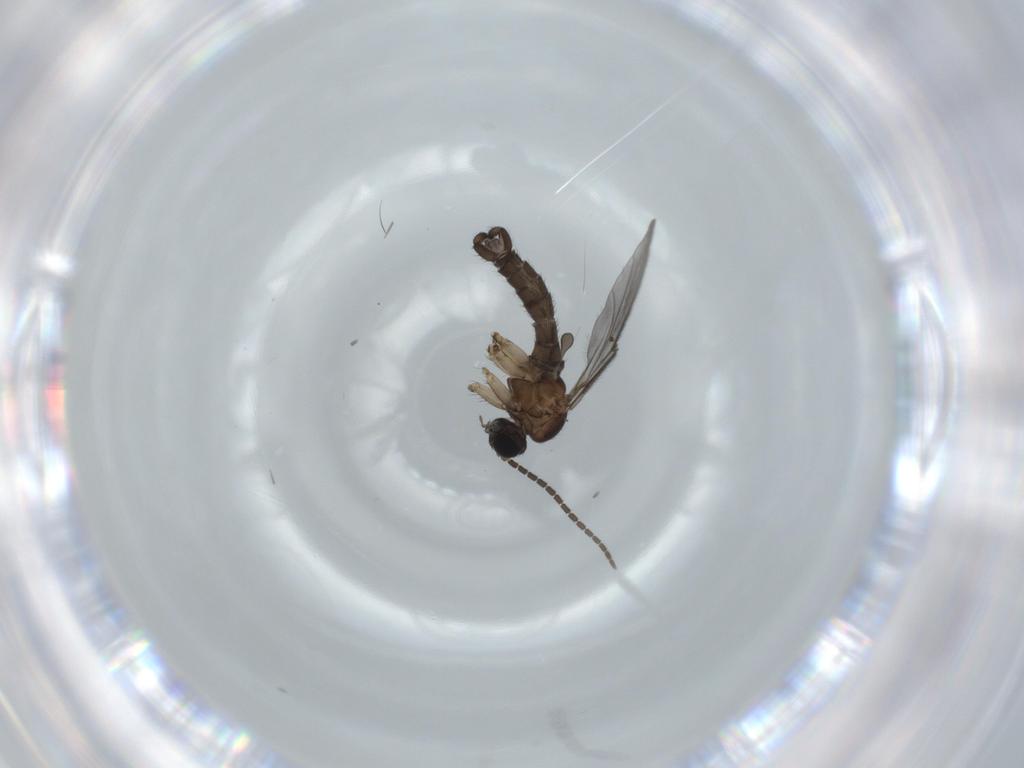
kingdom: Animalia
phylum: Arthropoda
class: Insecta
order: Diptera
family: Sciaridae
